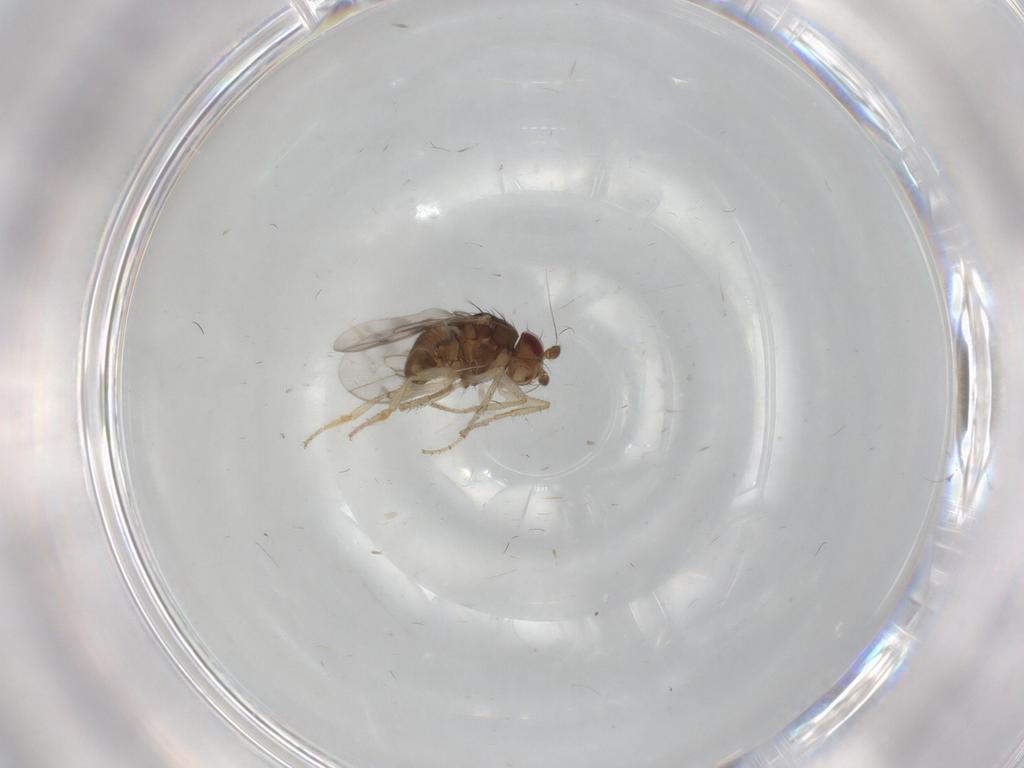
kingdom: Animalia
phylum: Arthropoda
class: Insecta
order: Diptera
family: Sphaeroceridae
